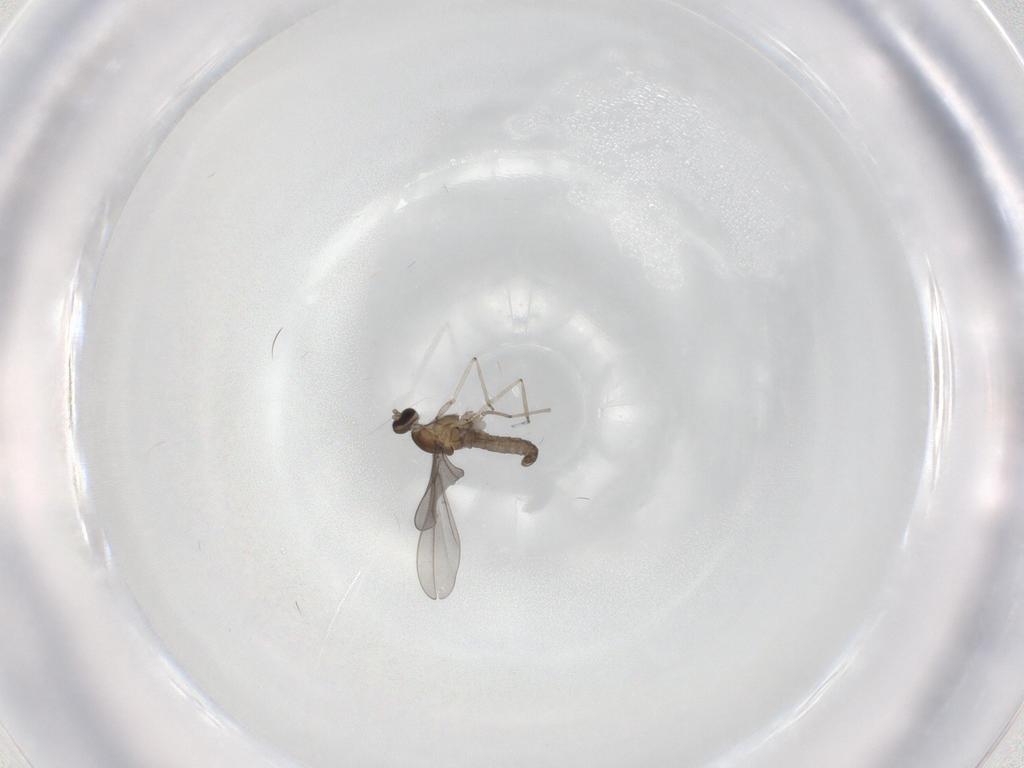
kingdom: Animalia
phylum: Arthropoda
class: Insecta
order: Diptera
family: Cecidomyiidae
